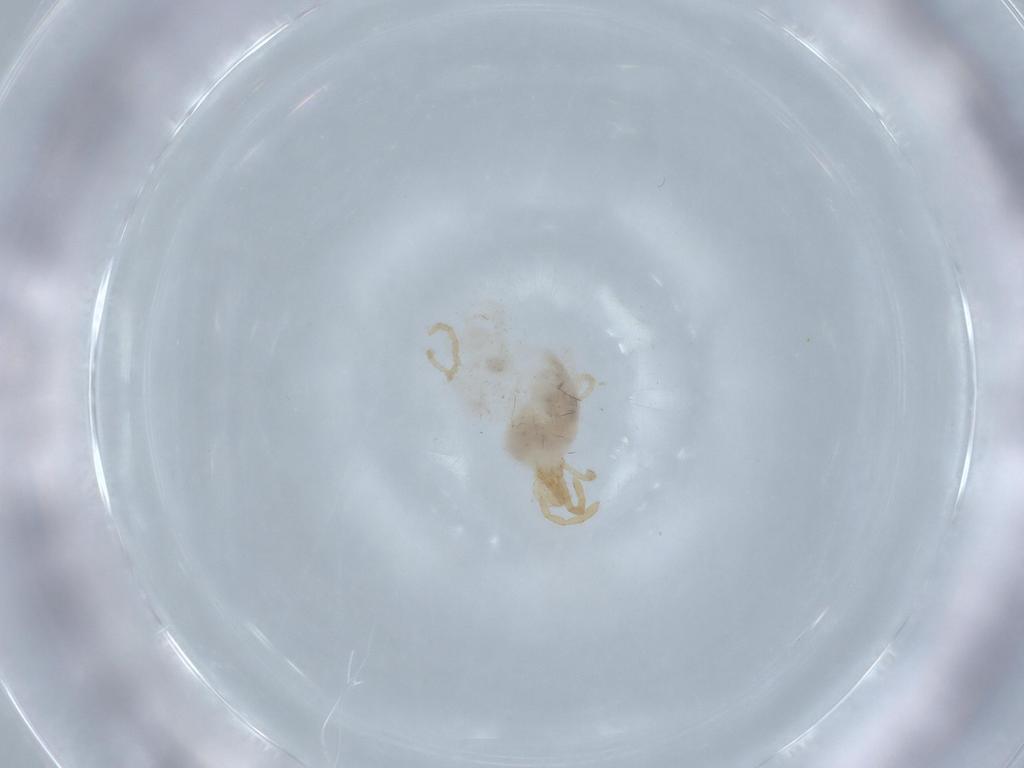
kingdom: Animalia
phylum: Arthropoda
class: Arachnida
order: Trombidiformes
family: Trombidiidae
